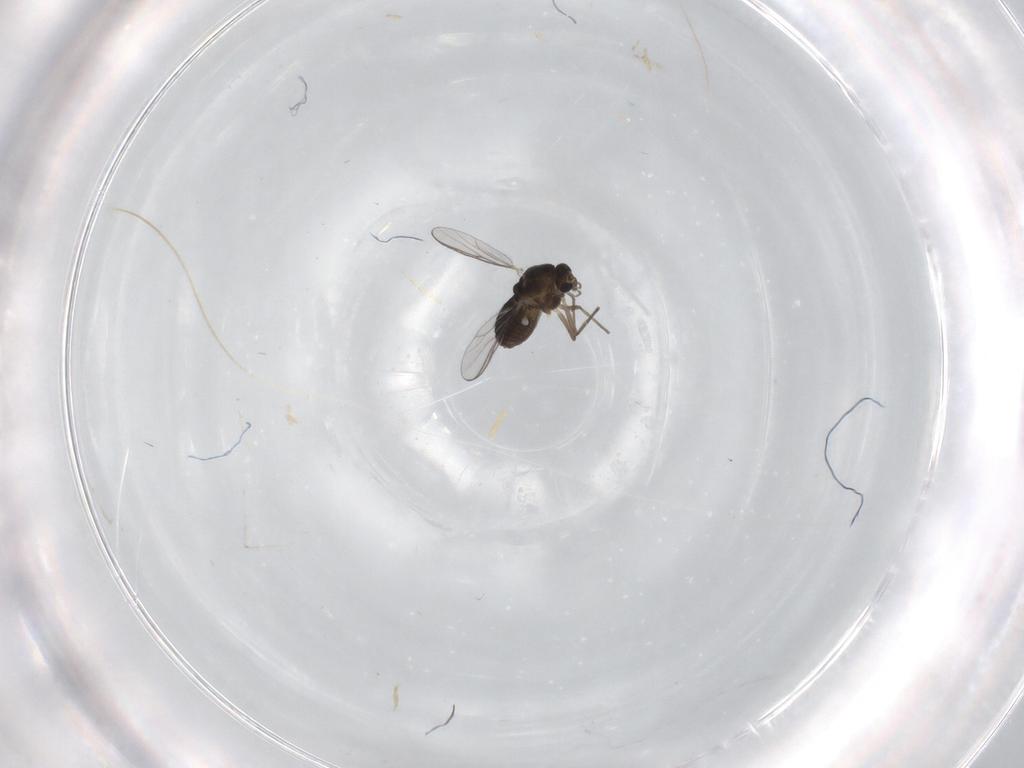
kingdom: Animalia
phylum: Arthropoda
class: Insecta
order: Diptera
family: Chironomidae
